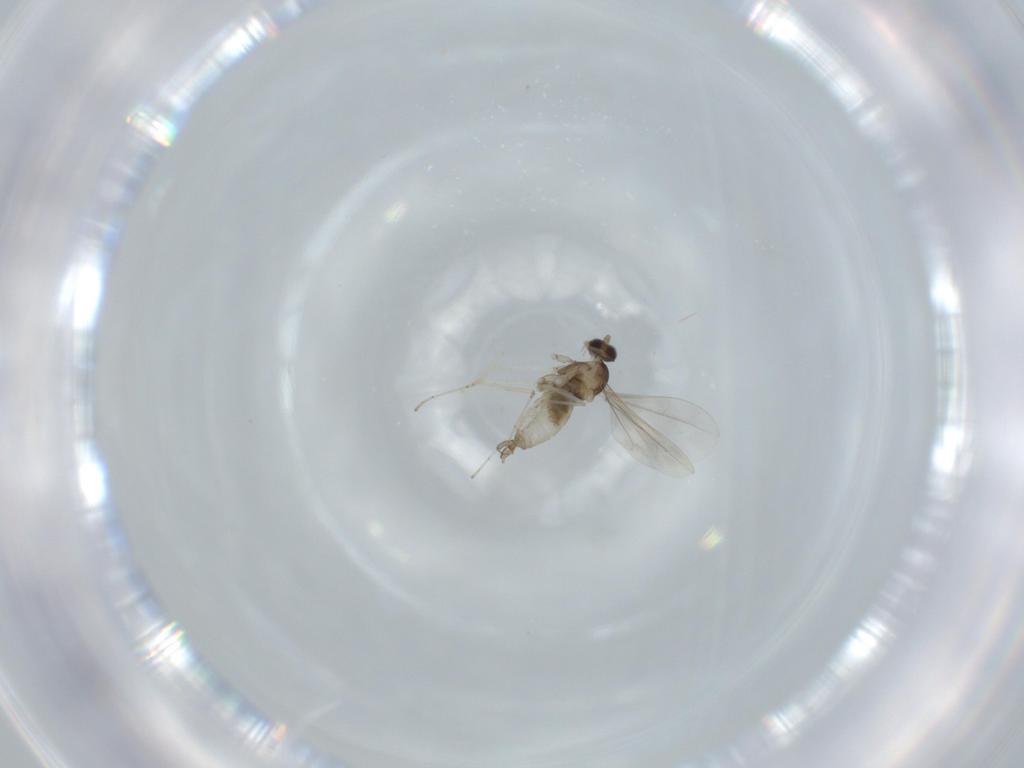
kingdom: Animalia
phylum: Arthropoda
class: Insecta
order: Diptera
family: Cecidomyiidae
